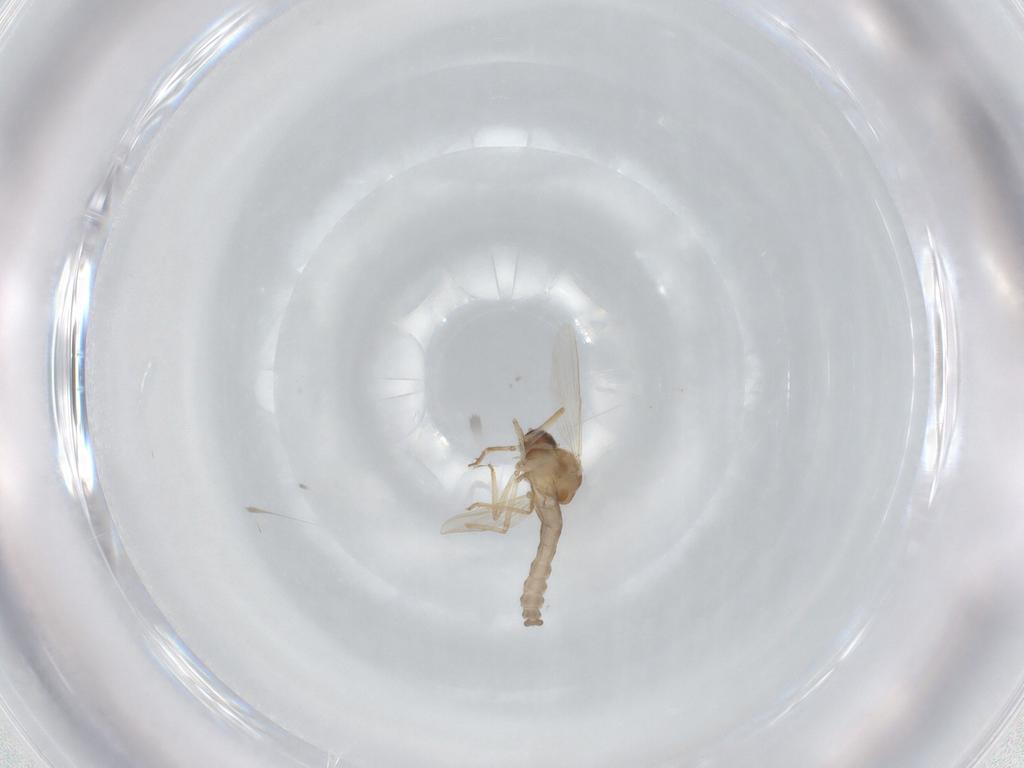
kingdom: Animalia
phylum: Arthropoda
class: Insecta
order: Diptera
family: Ceratopogonidae
